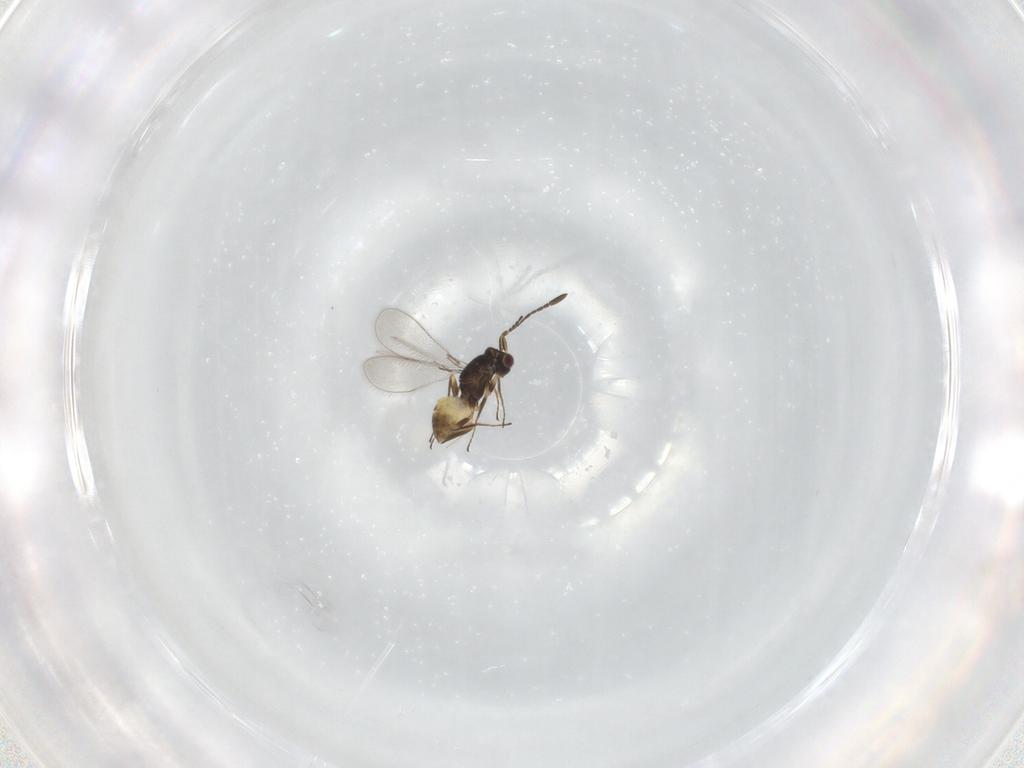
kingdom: Animalia
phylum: Arthropoda
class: Insecta
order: Hymenoptera
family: Mymaridae
